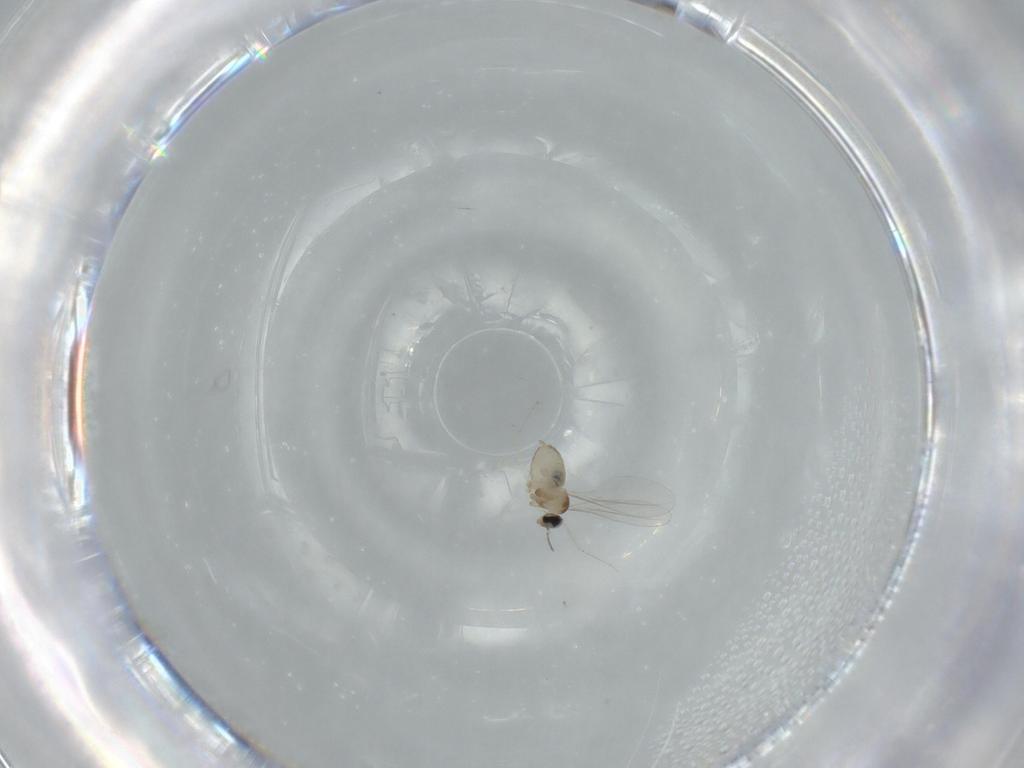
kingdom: Animalia
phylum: Arthropoda
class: Insecta
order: Diptera
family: Cecidomyiidae
